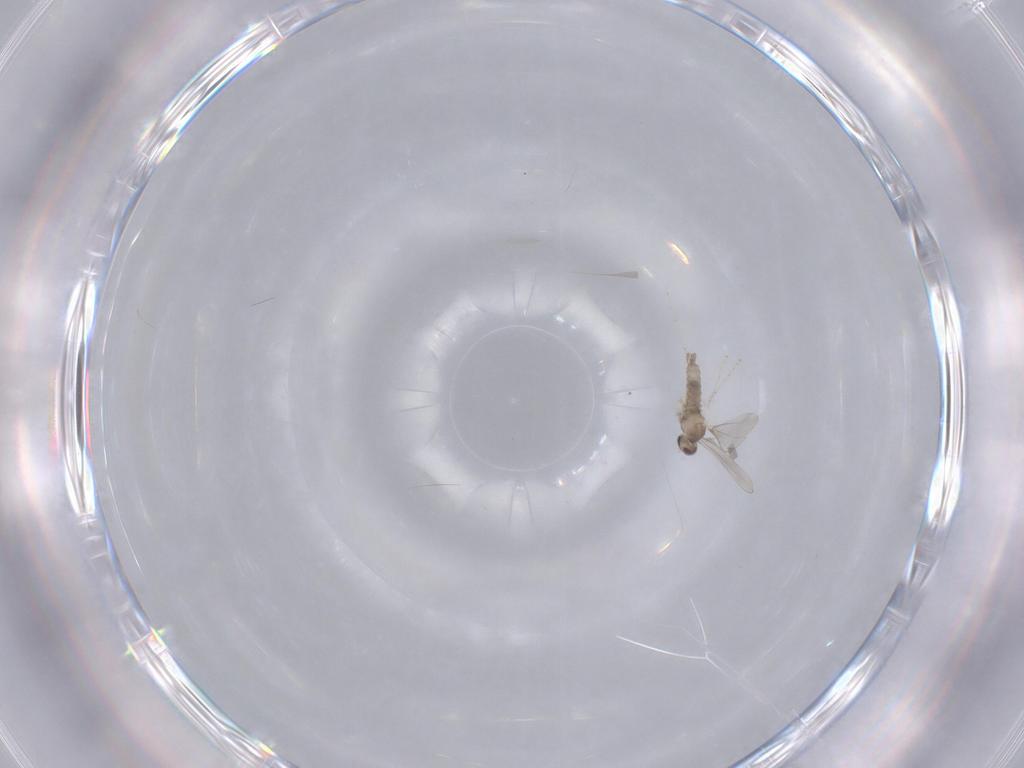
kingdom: Animalia
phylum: Arthropoda
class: Insecta
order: Diptera
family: Cecidomyiidae
